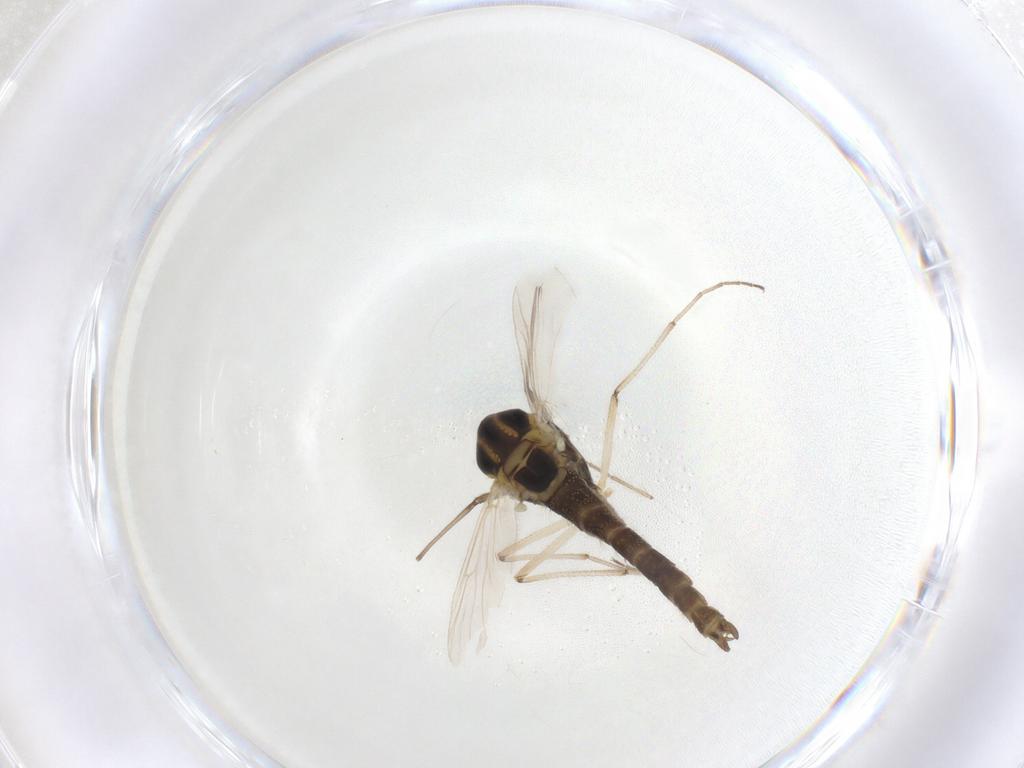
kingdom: Animalia
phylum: Arthropoda
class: Insecta
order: Diptera
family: Chironomidae
